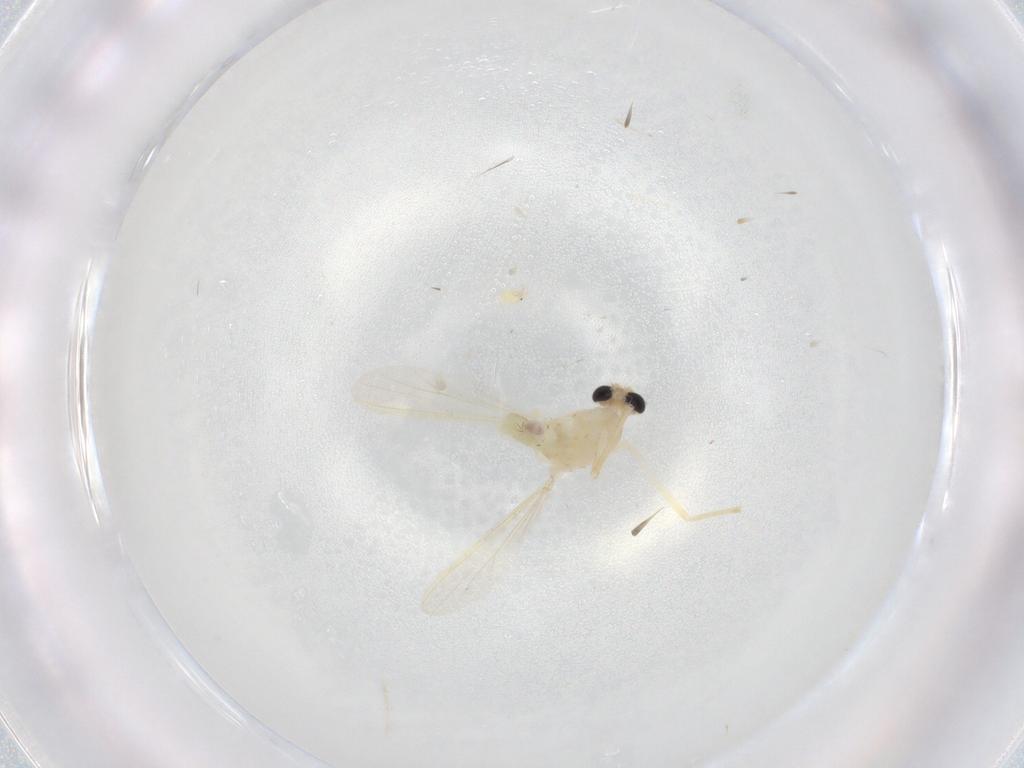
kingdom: Animalia
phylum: Arthropoda
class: Insecta
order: Diptera
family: Chironomidae
